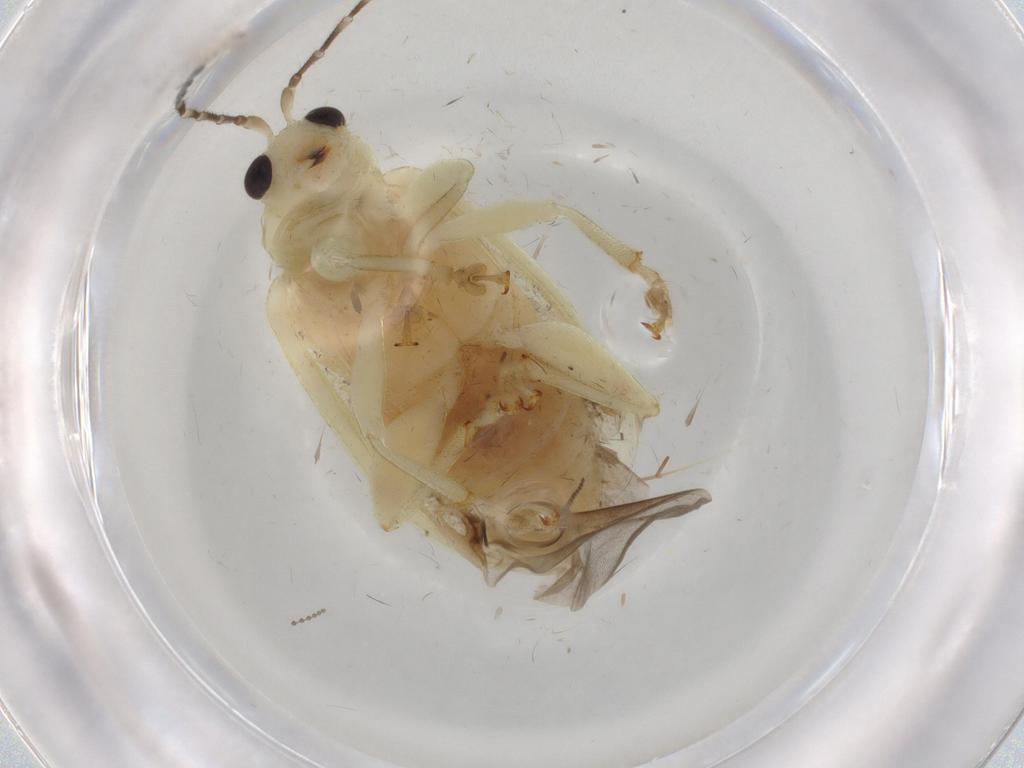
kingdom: Animalia
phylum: Arthropoda
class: Insecta
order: Coleoptera
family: Chrysomelidae
